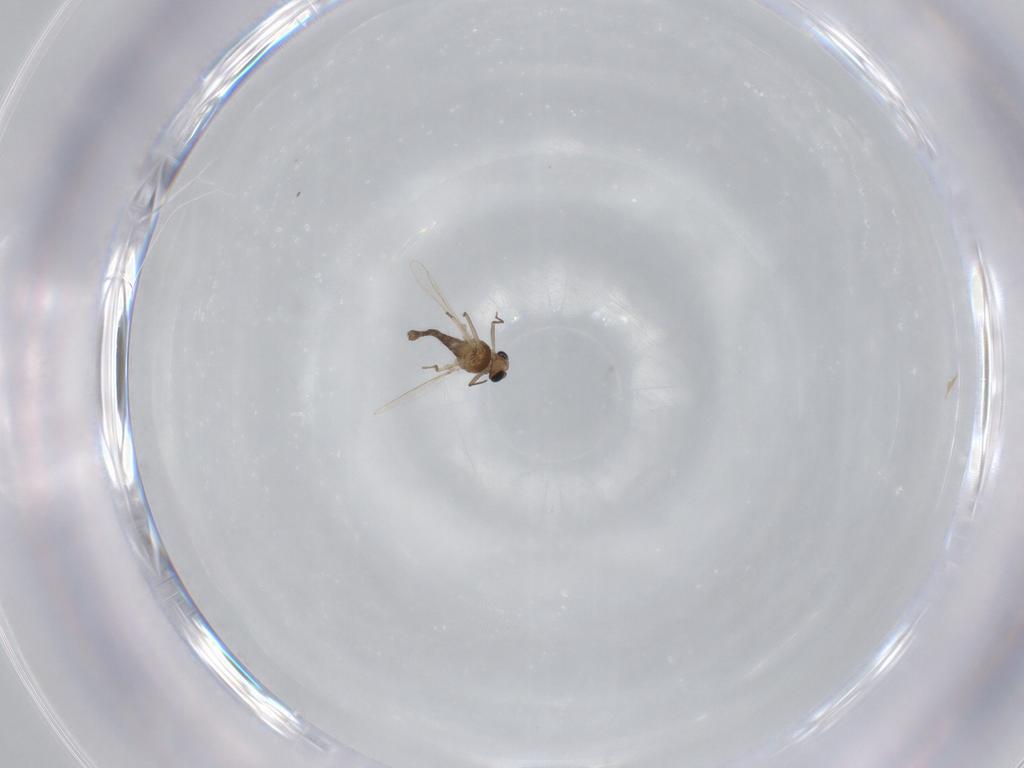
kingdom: Animalia
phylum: Arthropoda
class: Insecta
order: Diptera
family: Chironomidae
